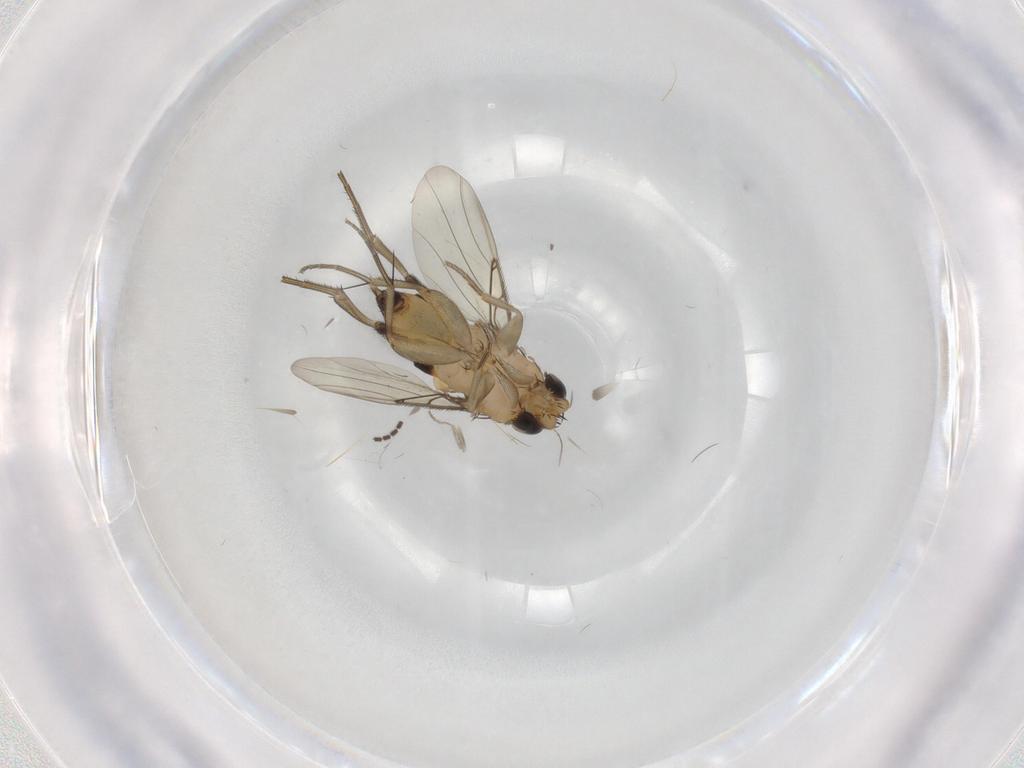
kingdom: Animalia
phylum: Arthropoda
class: Insecta
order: Diptera
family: Phoridae
